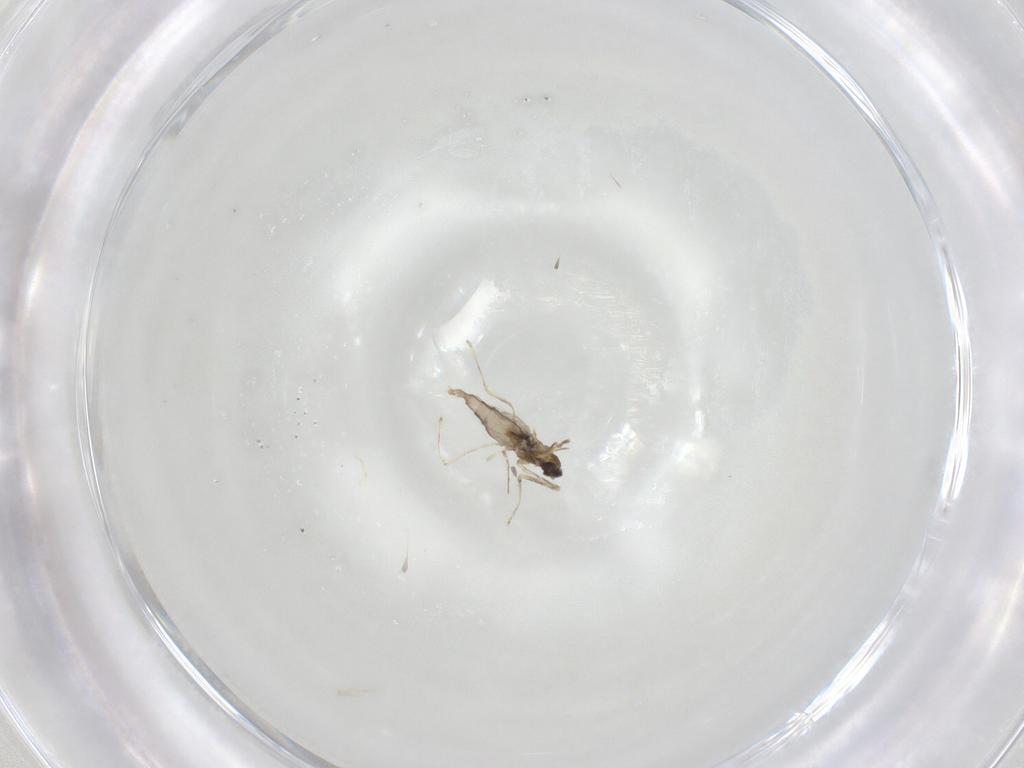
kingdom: Animalia
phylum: Arthropoda
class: Insecta
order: Diptera
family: Cecidomyiidae
